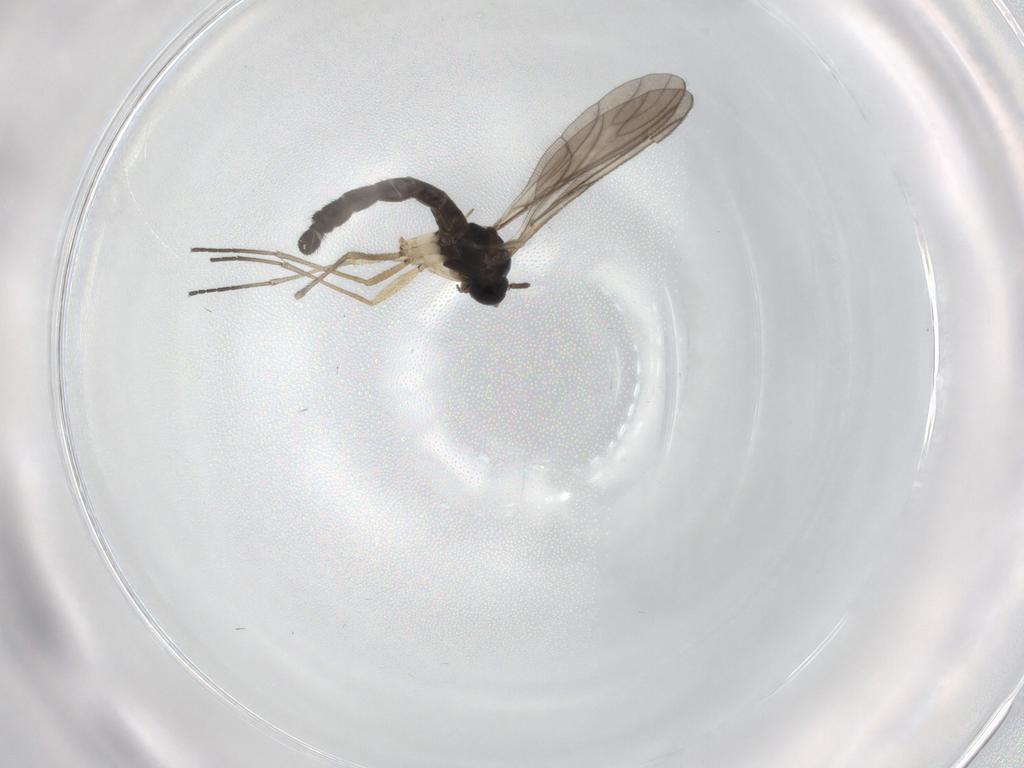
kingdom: Animalia
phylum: Arthropoda
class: Insecta
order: Diptera
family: Sciaridae
